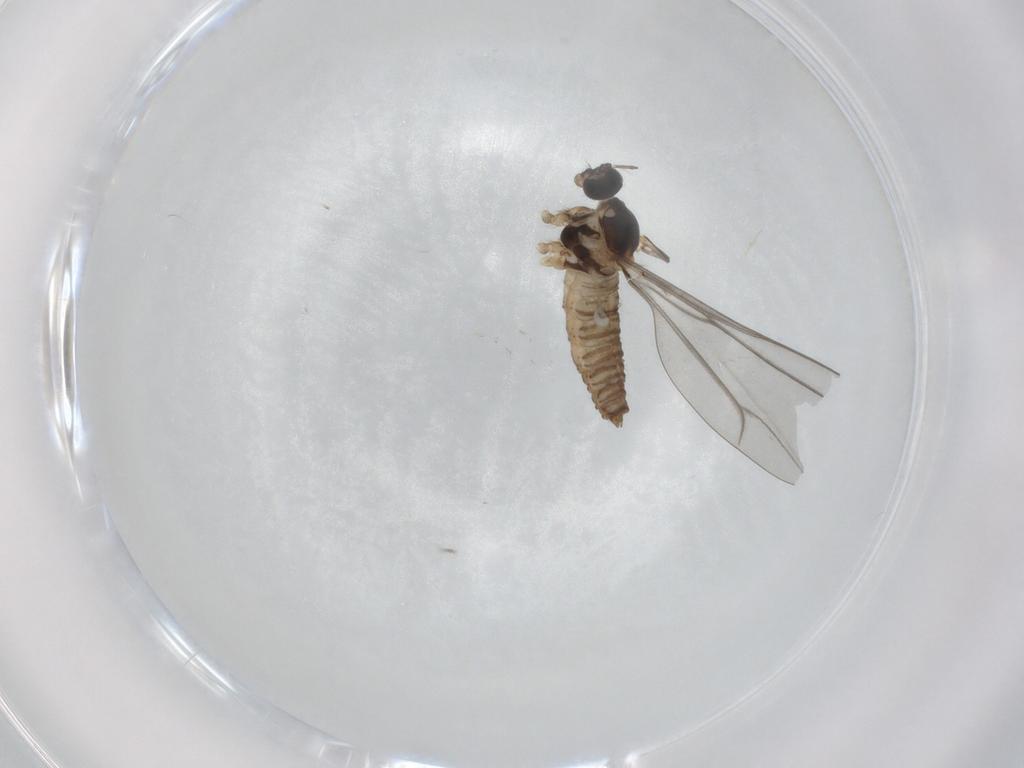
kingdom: Animalia
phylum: Arthropoda
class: Insecta
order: Diptera
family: Cecidomyiidae
